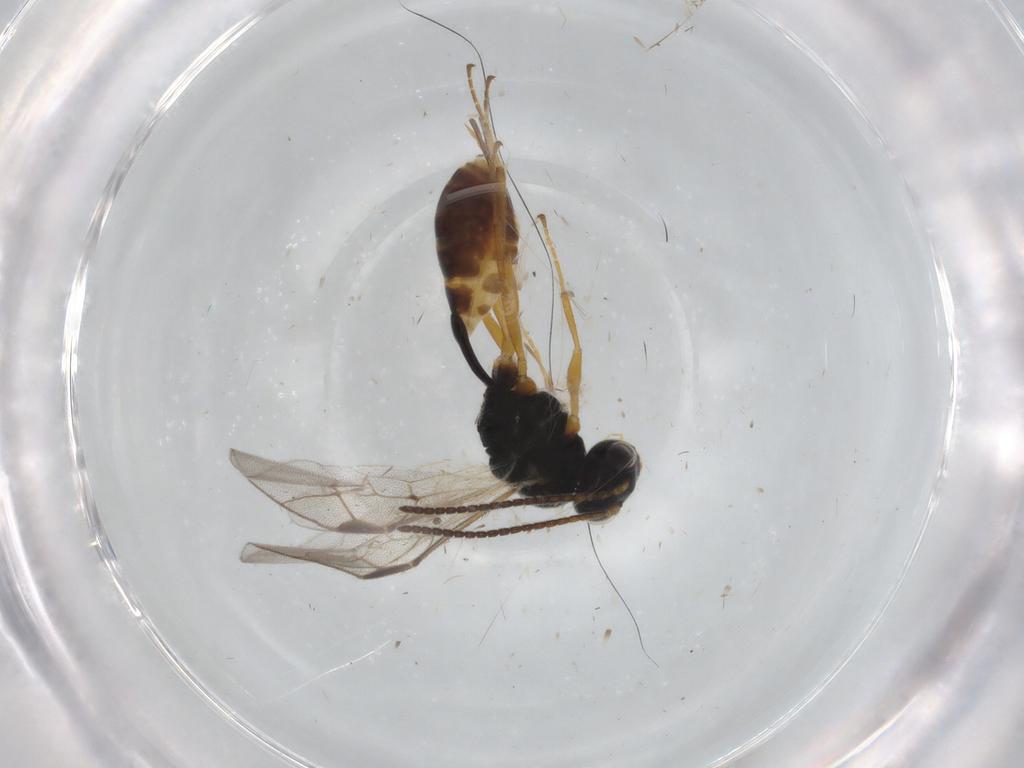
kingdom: Animalia
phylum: Arthropoda
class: Insecta
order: Hymenoptera
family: Ichneumonidae
